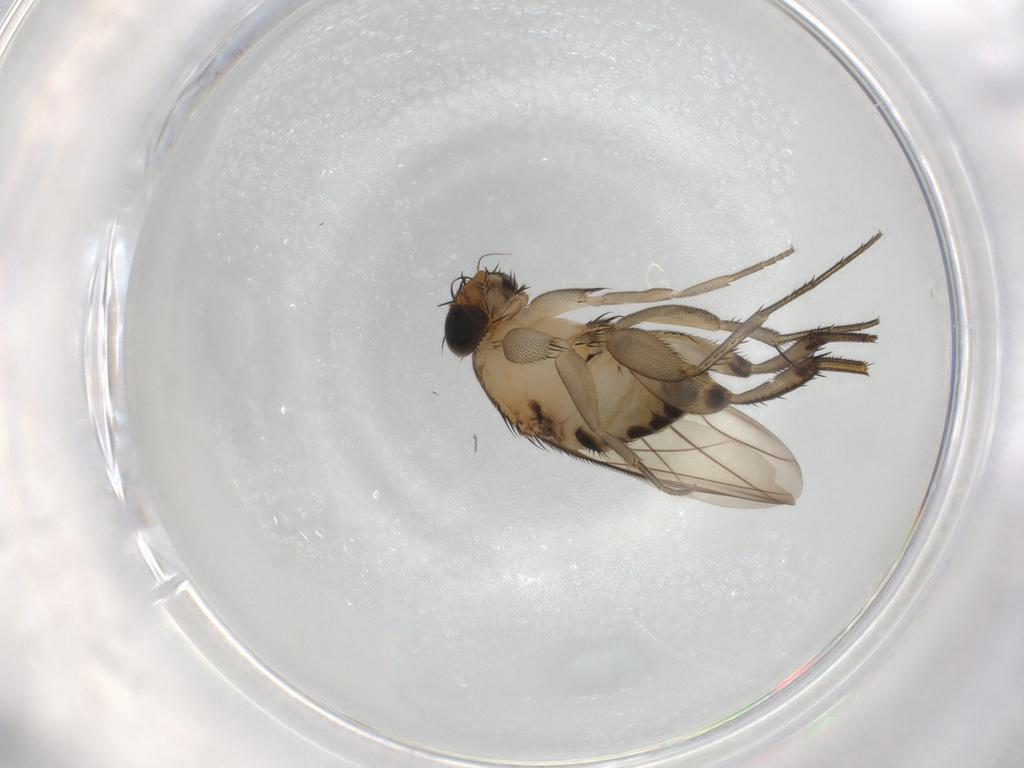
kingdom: Animalia
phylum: Arthropoda
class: Insecta
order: Diptera
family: Phoridae
